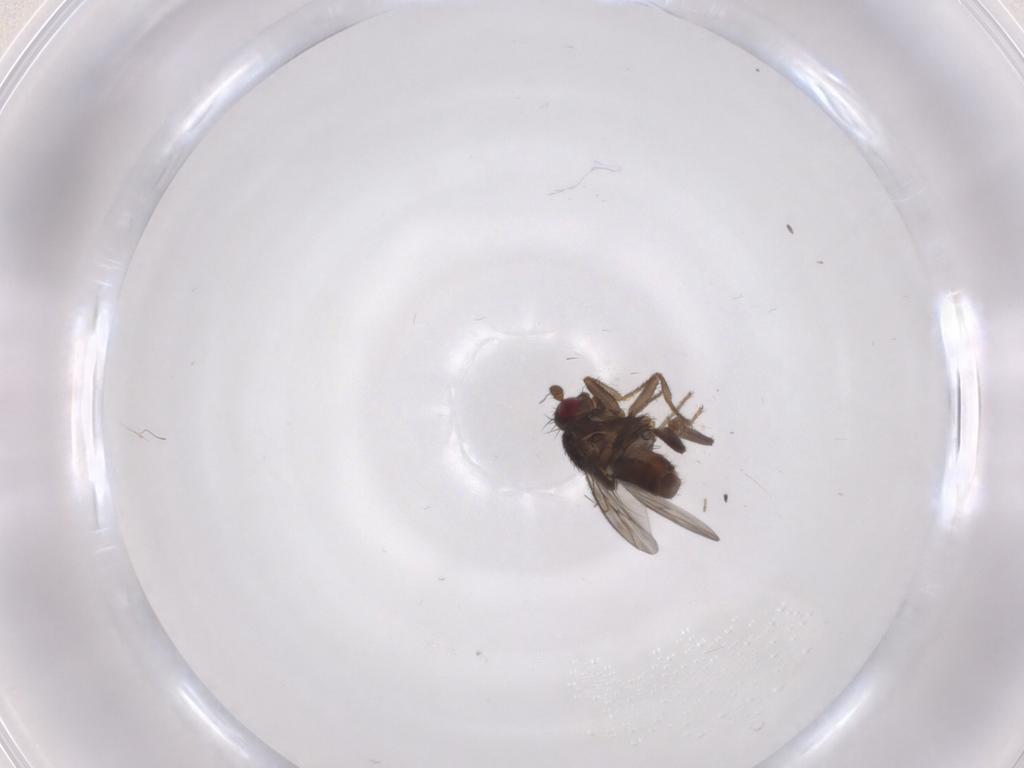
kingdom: Animalia
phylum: Arthropoda
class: Insecta
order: Diptera
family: Sphaeroceridae
